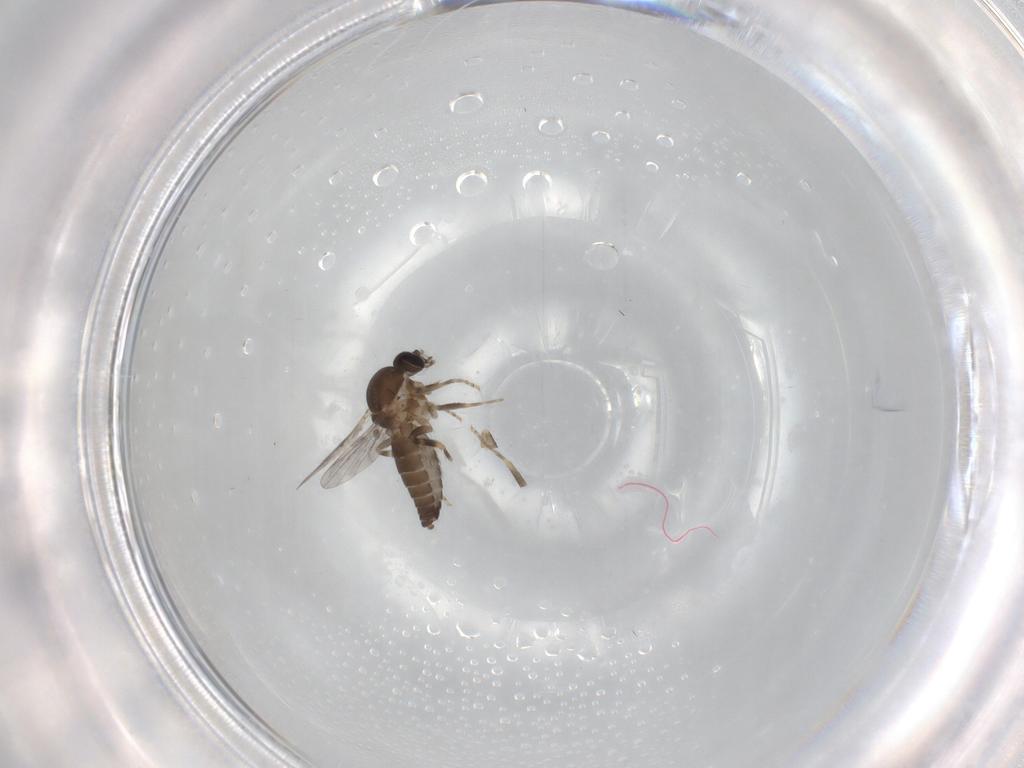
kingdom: Animalia
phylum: Arthropoda
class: Insecta
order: Diptera
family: Ceratopogonidae
